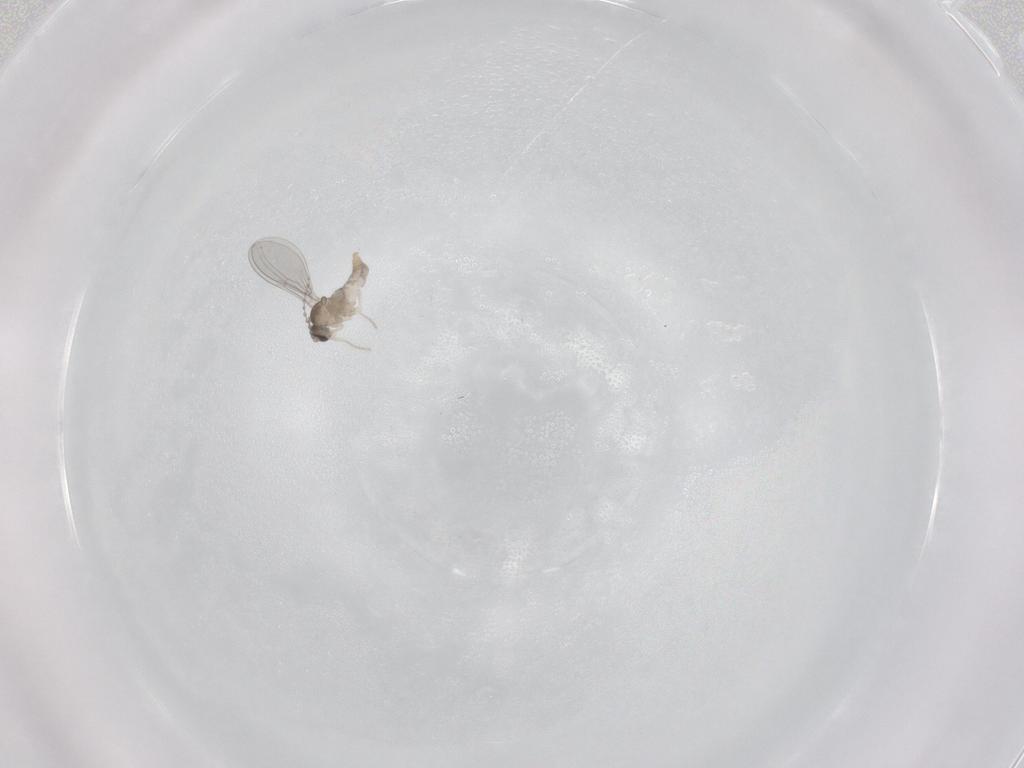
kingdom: Animalia
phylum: Arthropoda
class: Insecta
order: Diptera
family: Cecidomyiidae
